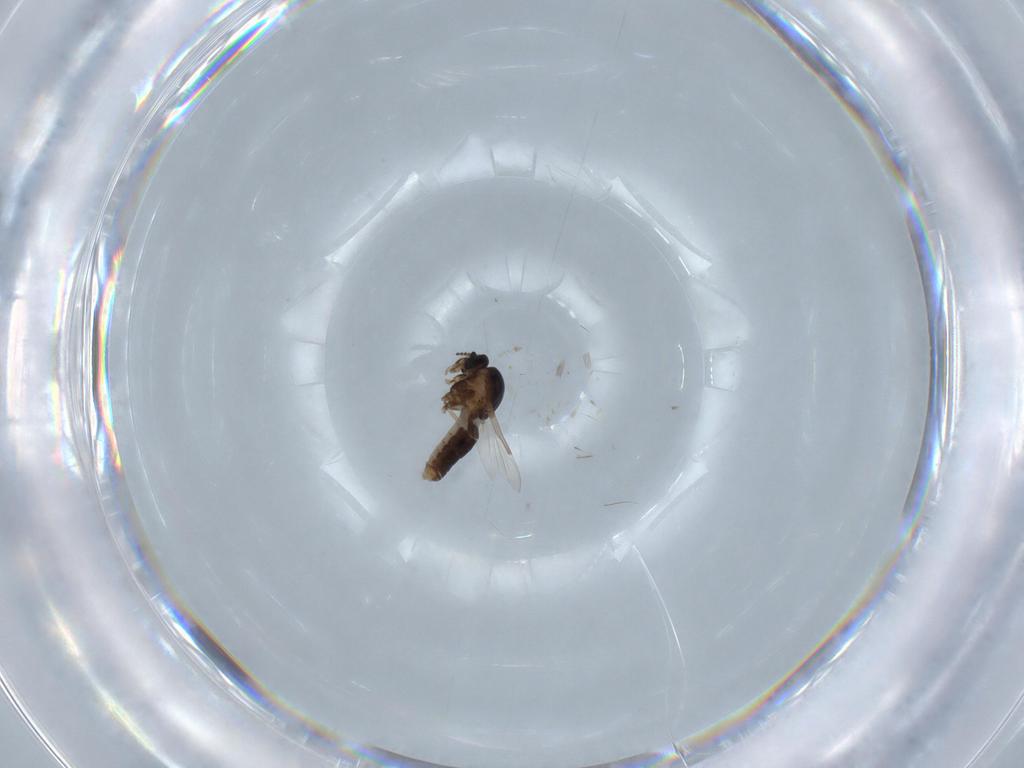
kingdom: Animalia
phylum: Arthropoda
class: Insecta
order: Diptera
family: Ceratopogonidae
